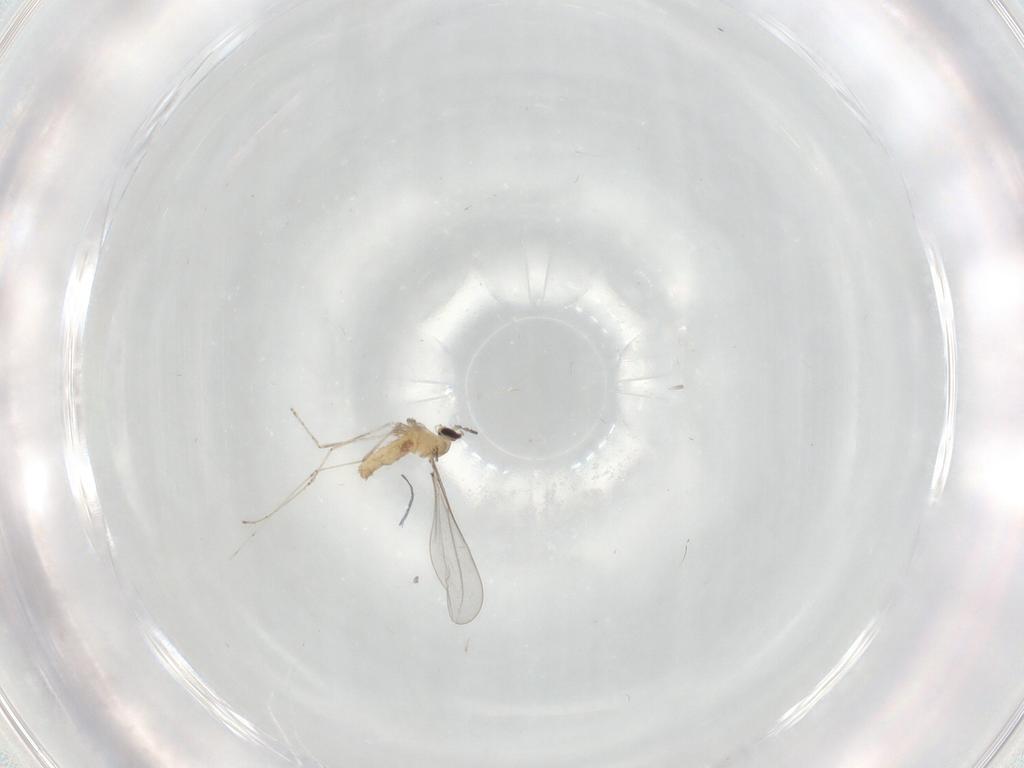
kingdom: Animalia
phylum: Arthropoda
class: Insecta
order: Diptera
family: Cecidomyiidae
